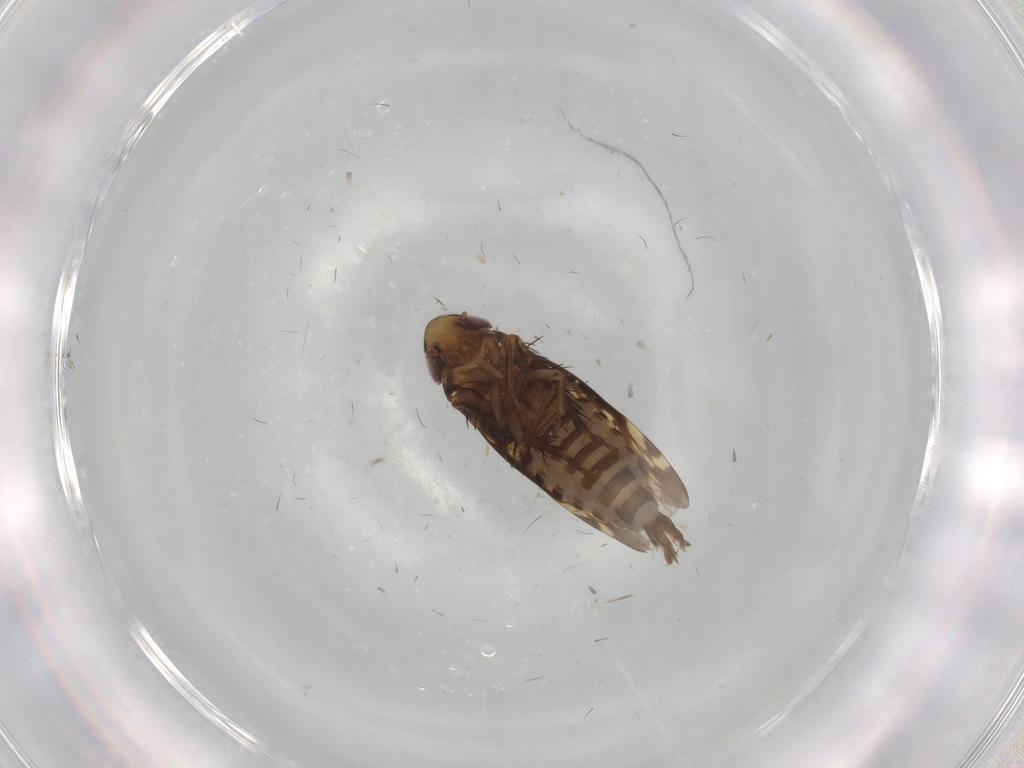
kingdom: Animalia
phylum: Arthropoda
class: Insecta
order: Hemiptera
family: Cicadellidae
